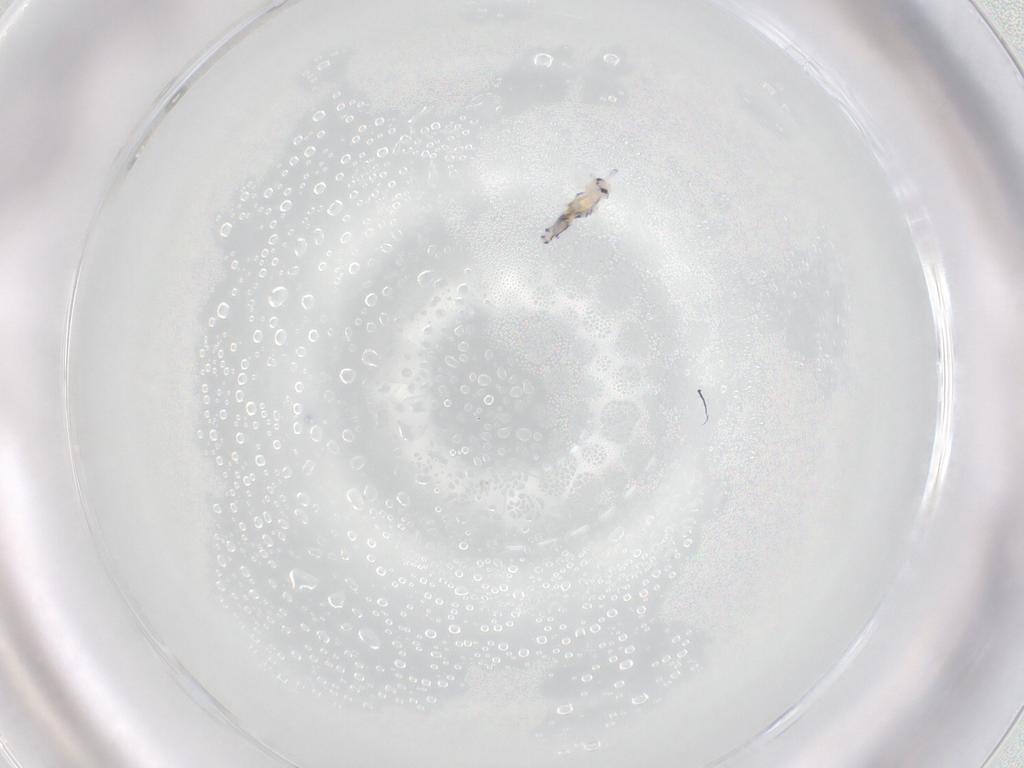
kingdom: Animalia
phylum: Arthropoda
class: Collembola
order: Entomobryomorpha
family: Entomobryidae
